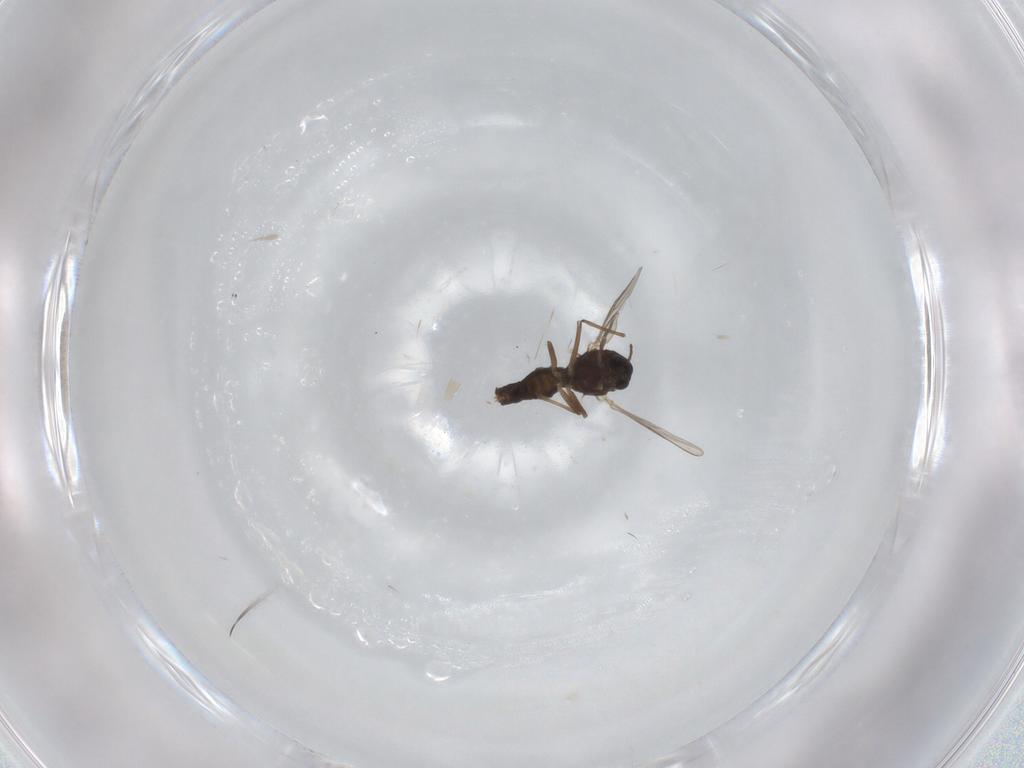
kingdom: Animalia
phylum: Arthropoda
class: Insecta
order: Diptera
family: Chironomidae
